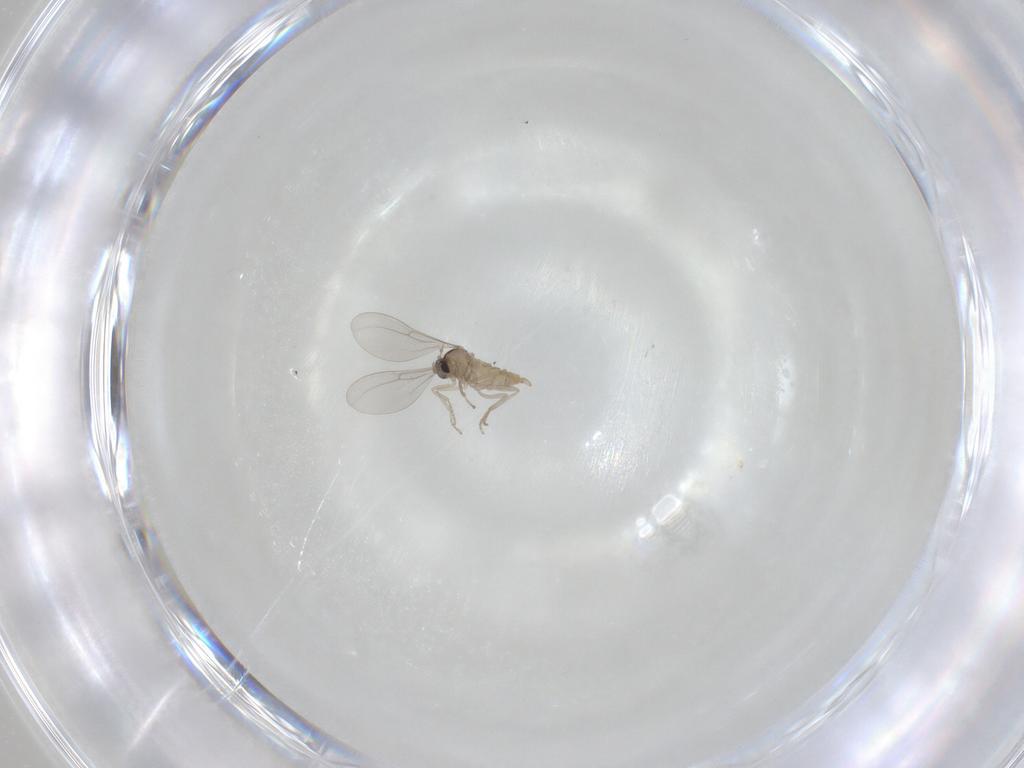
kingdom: Animalia
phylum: Arthropoda
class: Insecta
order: Diptera
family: Cecidomyiidae
